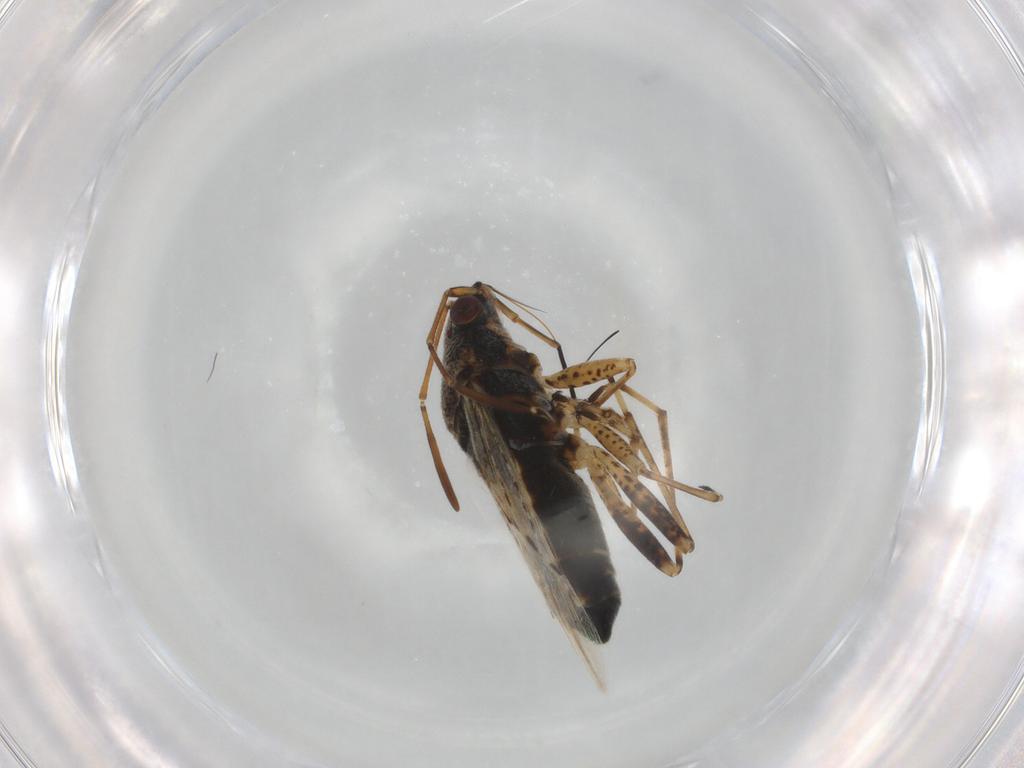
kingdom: Animalia
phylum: Arthropoda
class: Insecta
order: Hemiptera
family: Lygaeidae
